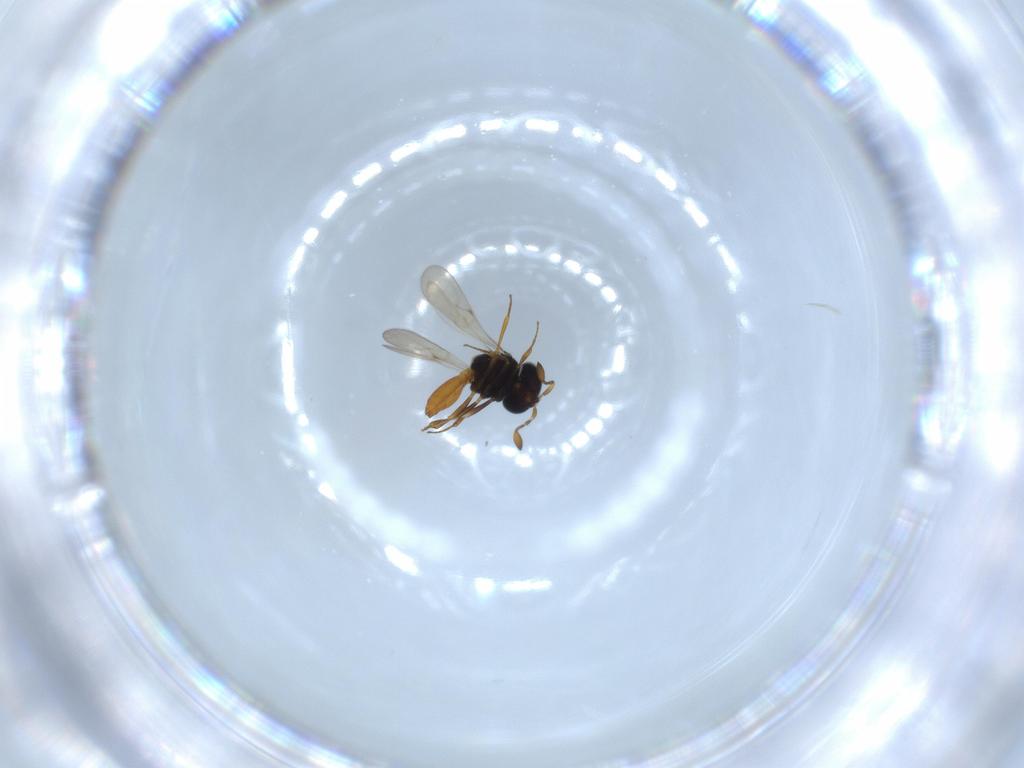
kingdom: Animalia
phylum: Arthropoda
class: Insecta
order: Hymenoptera
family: Scelionidae
